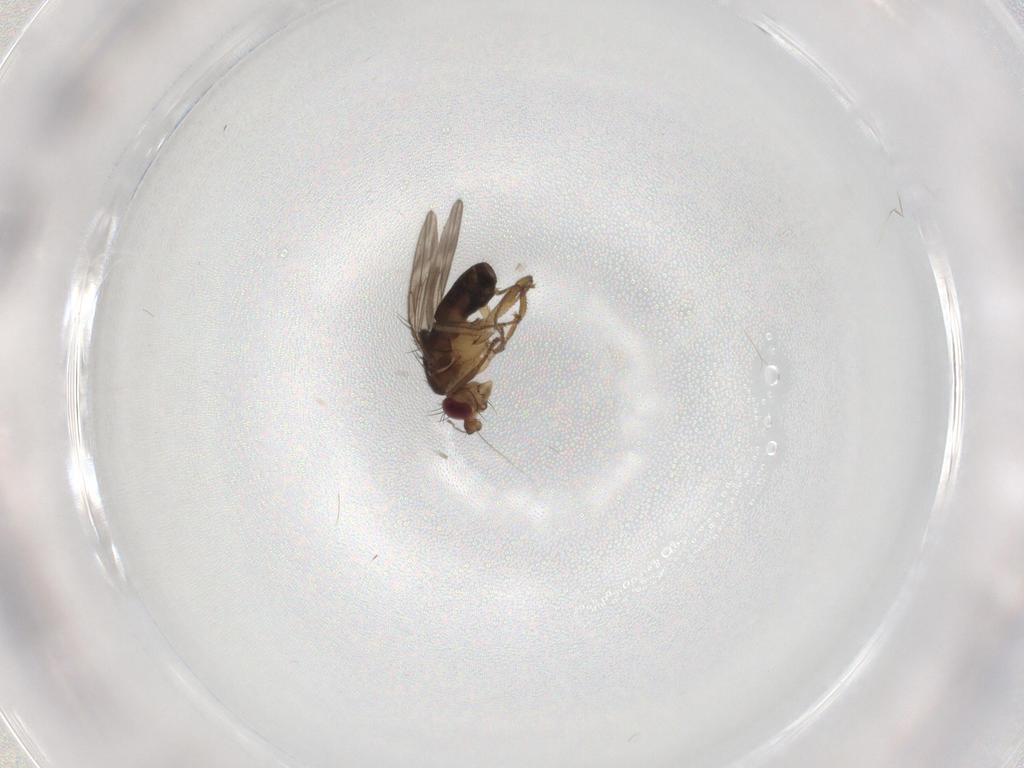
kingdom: Animalia
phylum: Arthropoda
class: Insecta
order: Diptera
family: Sphaeroceridae
